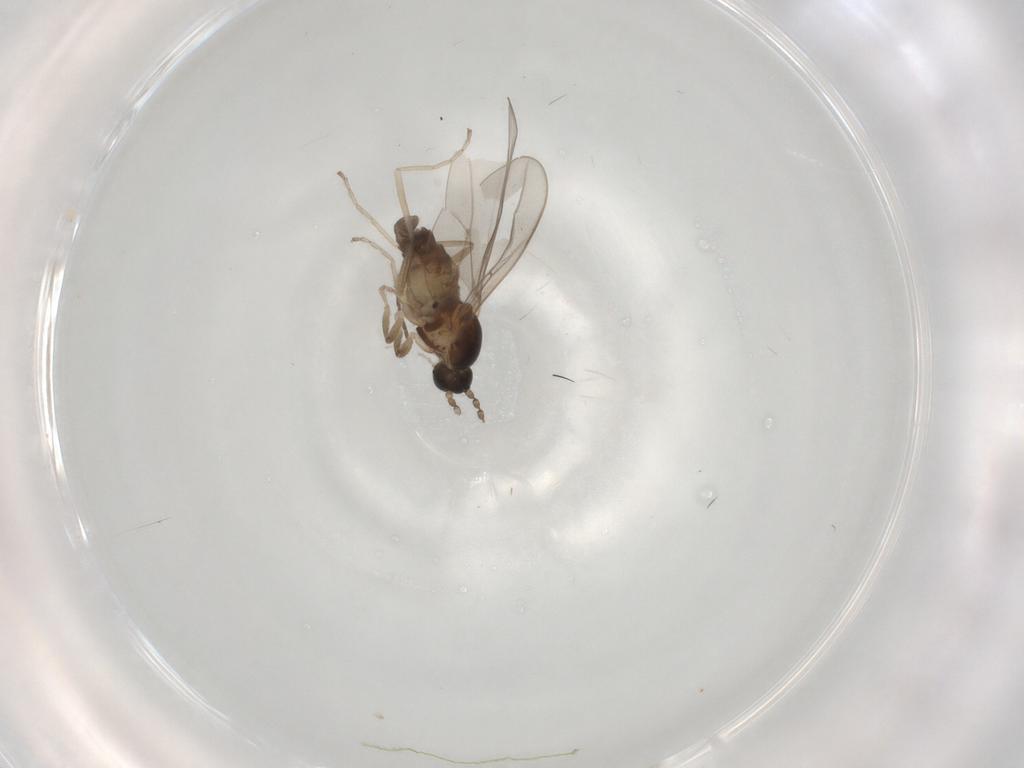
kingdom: Animalia
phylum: Arthropoda
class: Insecta
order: Diptera
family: Cecidomyiidae
